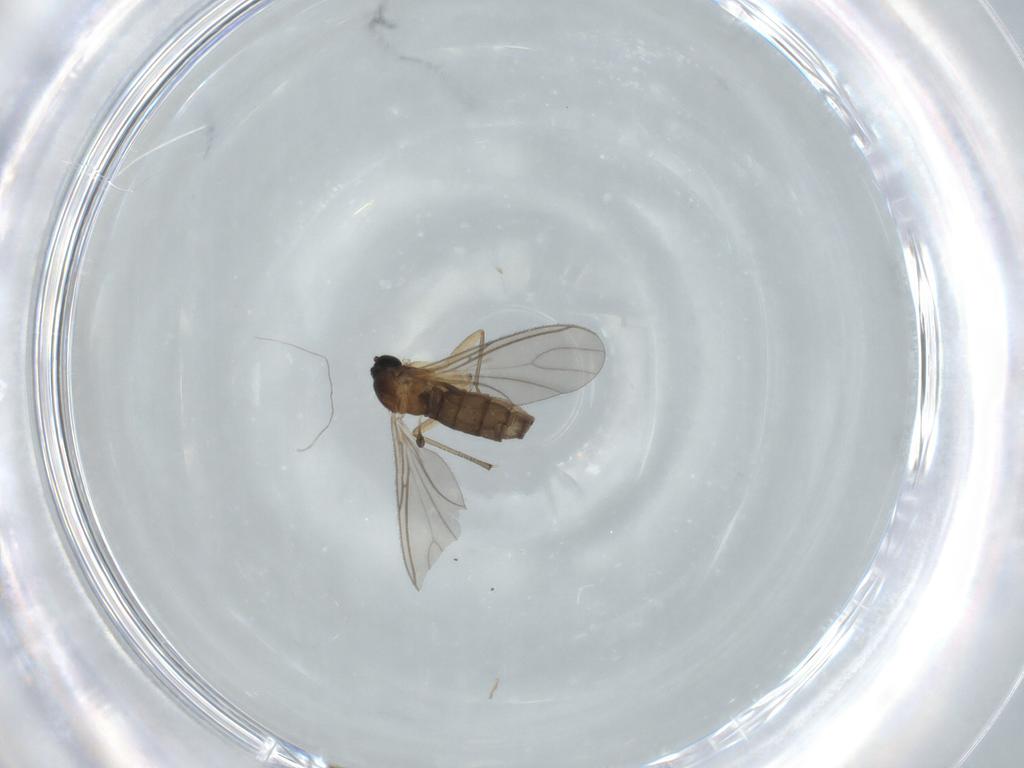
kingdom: Animalia
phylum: Arthropoda
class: Insecta
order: Diptera
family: Sciaridae
